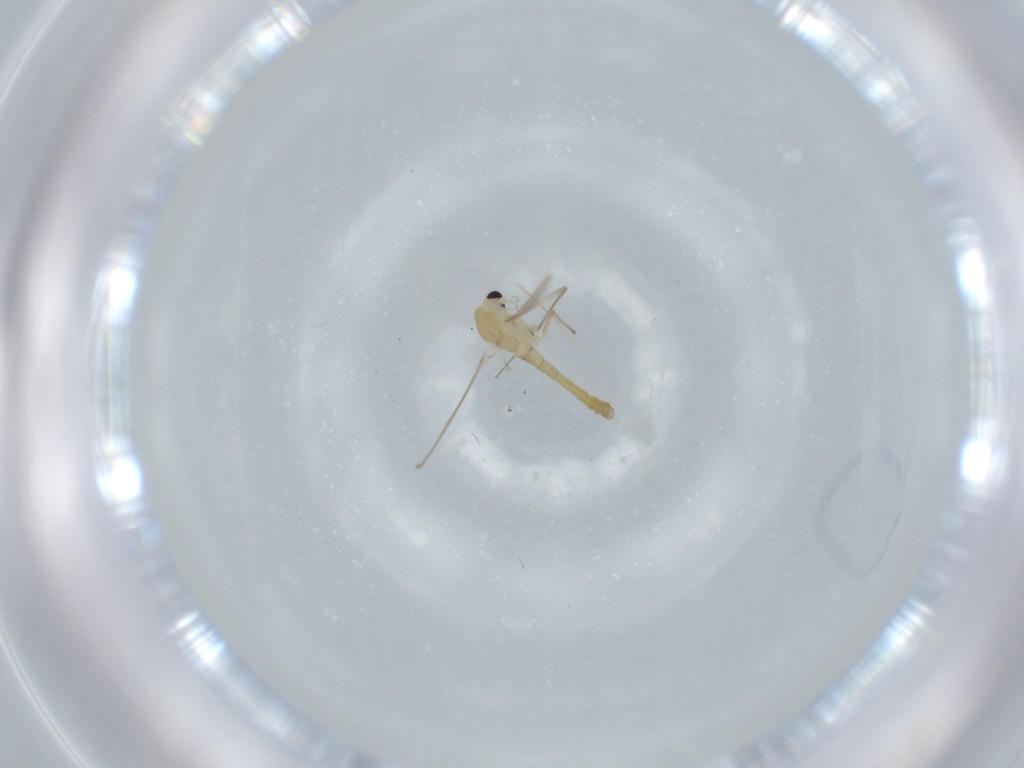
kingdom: Animalia
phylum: Arthropoda
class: Insecta
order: Diptera
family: Chironomidae
